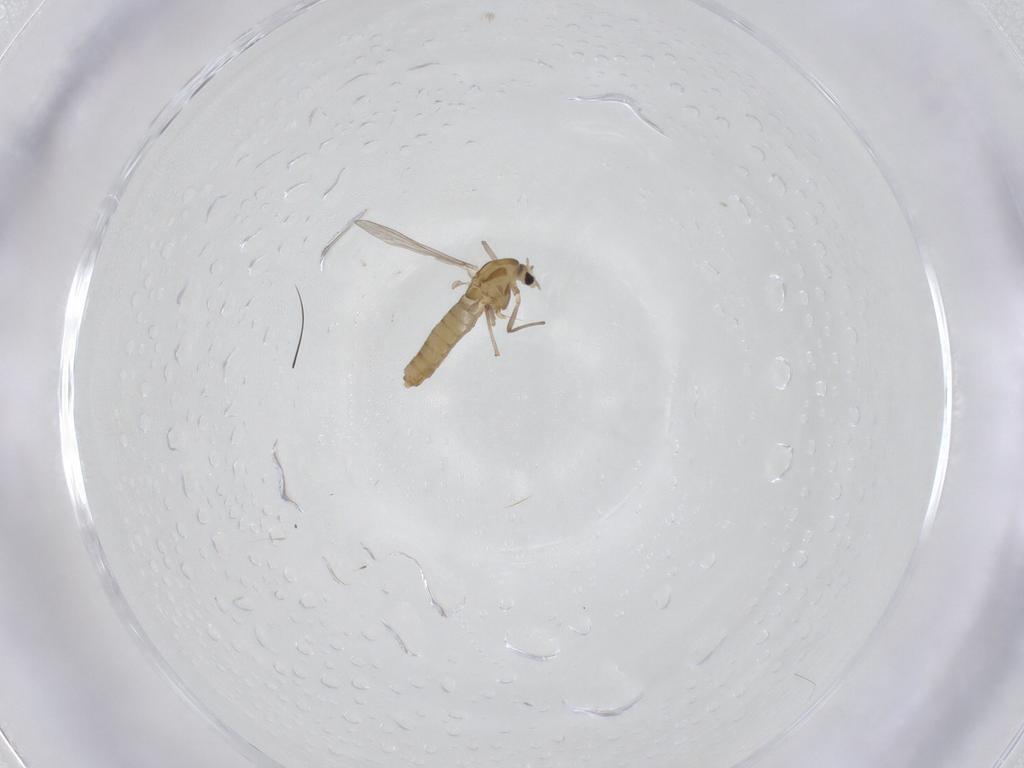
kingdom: Animalia
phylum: Arthropoda
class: Insecta
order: Diptera
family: Chironomidae
